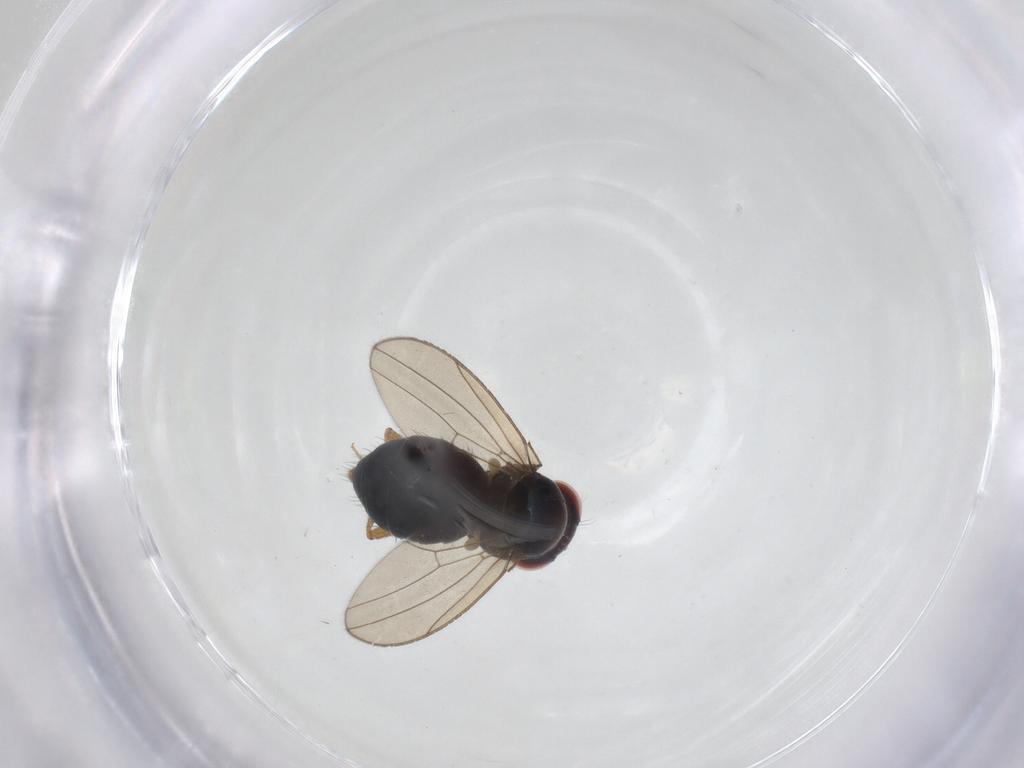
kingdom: Animalia
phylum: Arthropoda
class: Insecta
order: Diptera
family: Drosophilidae
